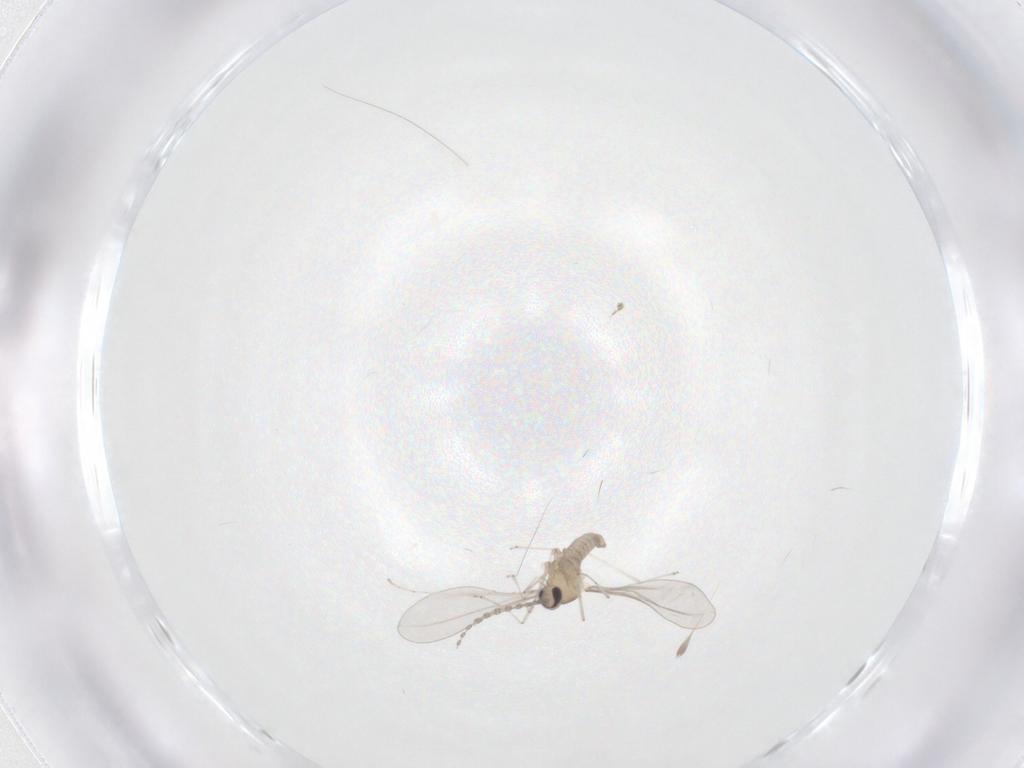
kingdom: Animalia
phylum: Arthropoda
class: Insecta
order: Diptera
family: Cecidomyiidae
